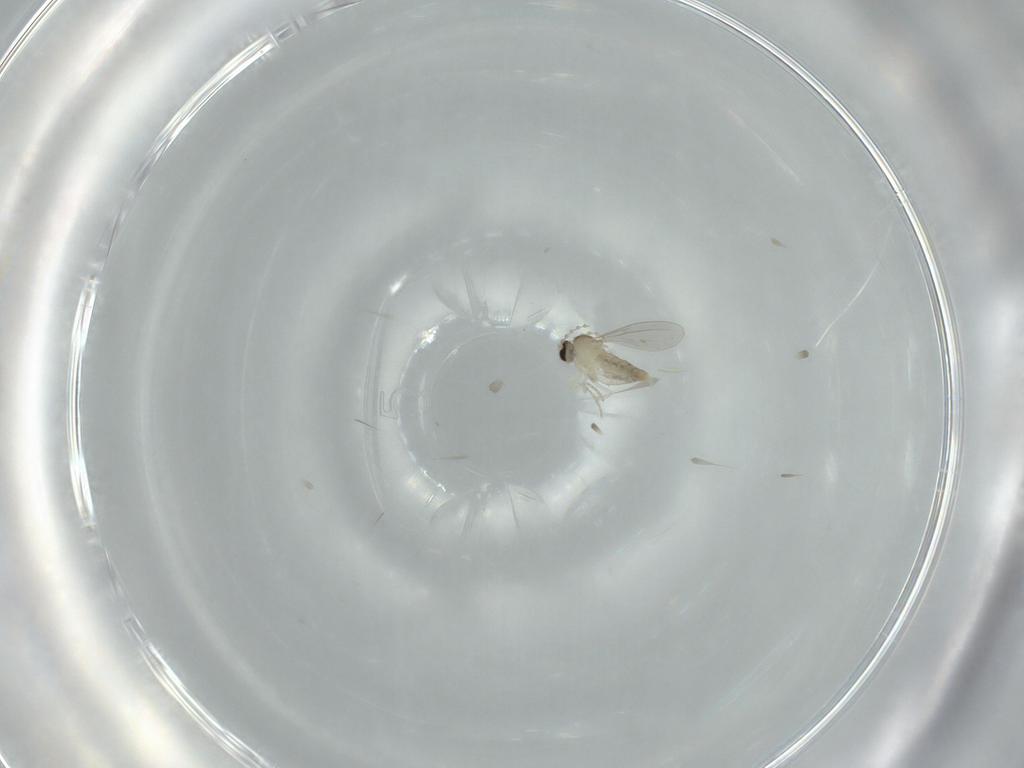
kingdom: Animalia
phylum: Arthropoda
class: Insecta
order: Diptera
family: Cecidomyiidae
